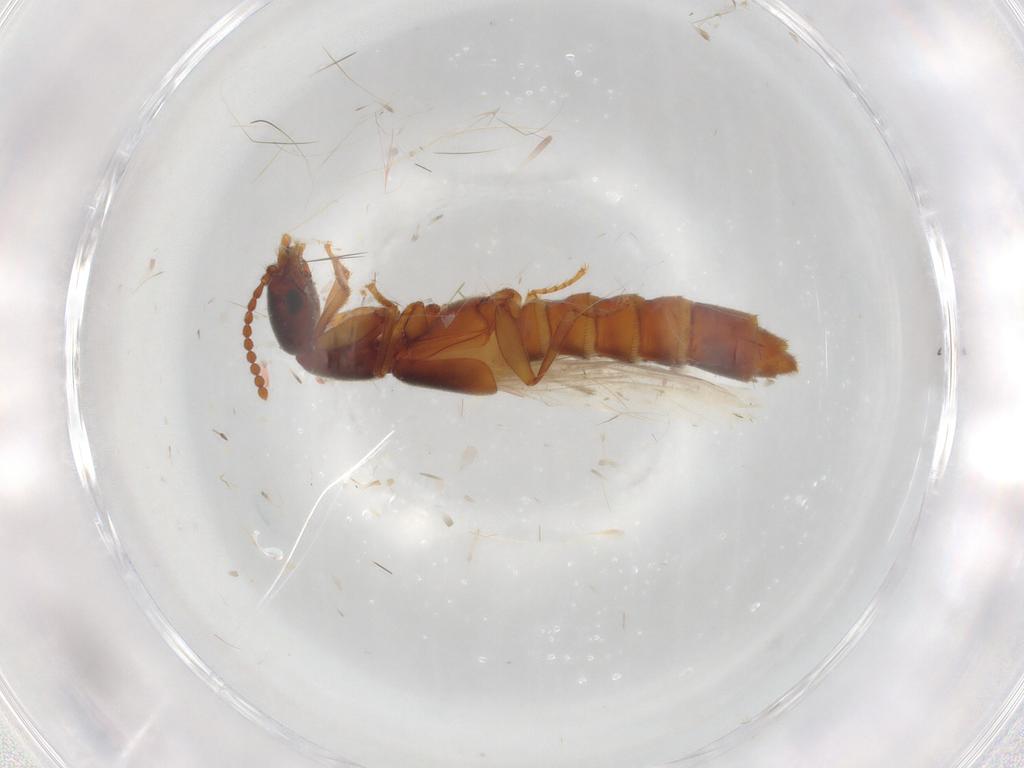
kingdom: Animalia
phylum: Arthropoda
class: Insecta
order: Coleoptera
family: Staphylinidae
